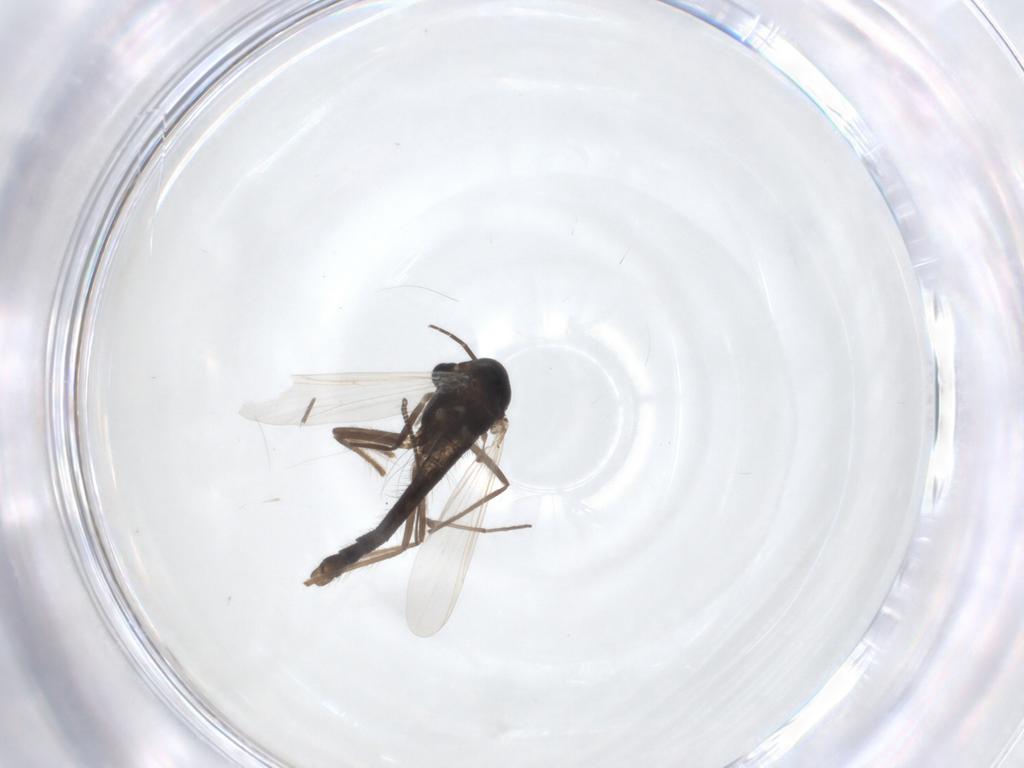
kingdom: Animalia
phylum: Arthropoda
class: Insecta
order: Diptera
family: Chironomidae
